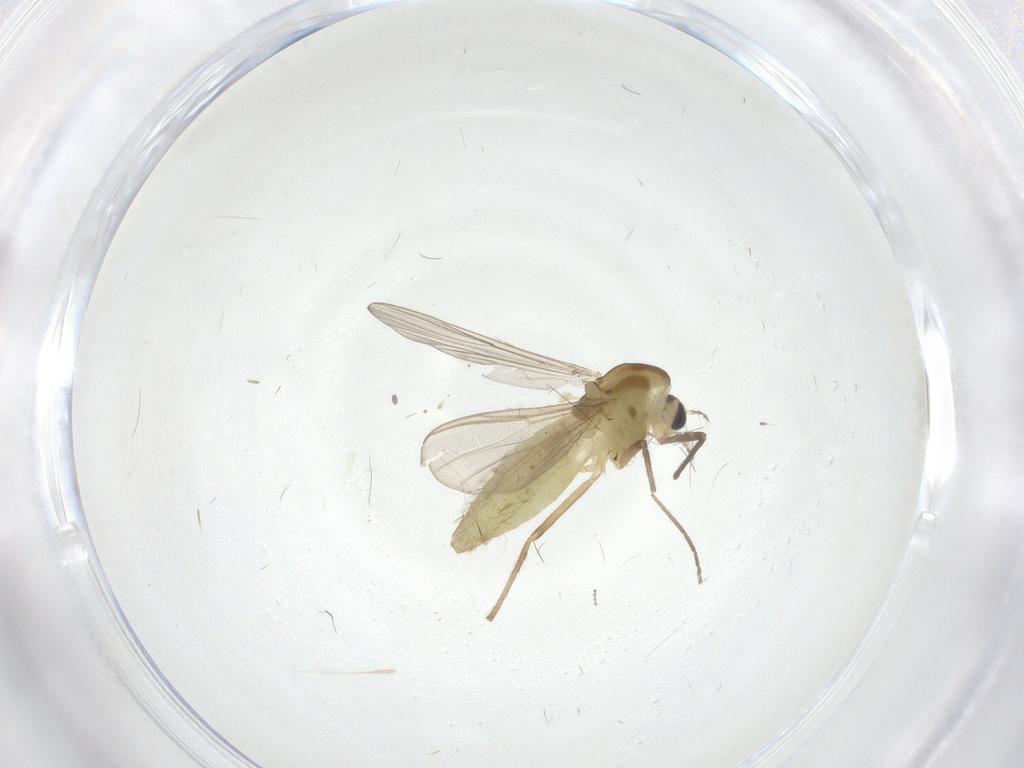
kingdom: Animalia
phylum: Arthropoda
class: Insecta
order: Diptera
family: Chironomidae
